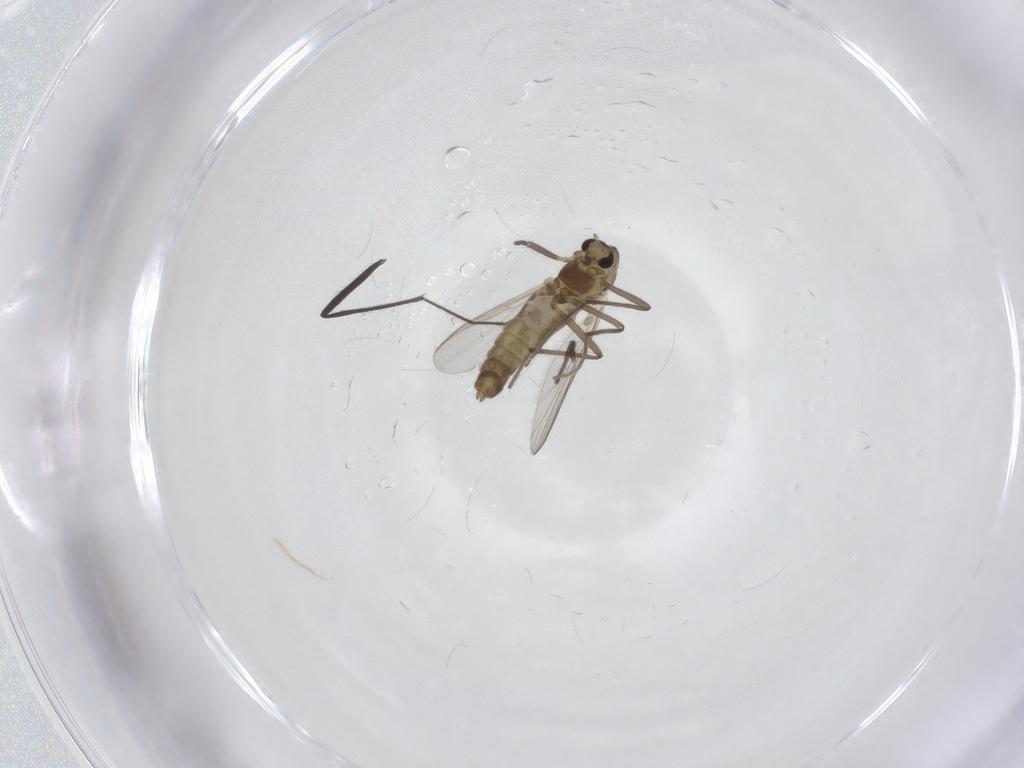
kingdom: Animalia
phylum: Arthropoda
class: Insecta
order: Diptera
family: Chironomidae
